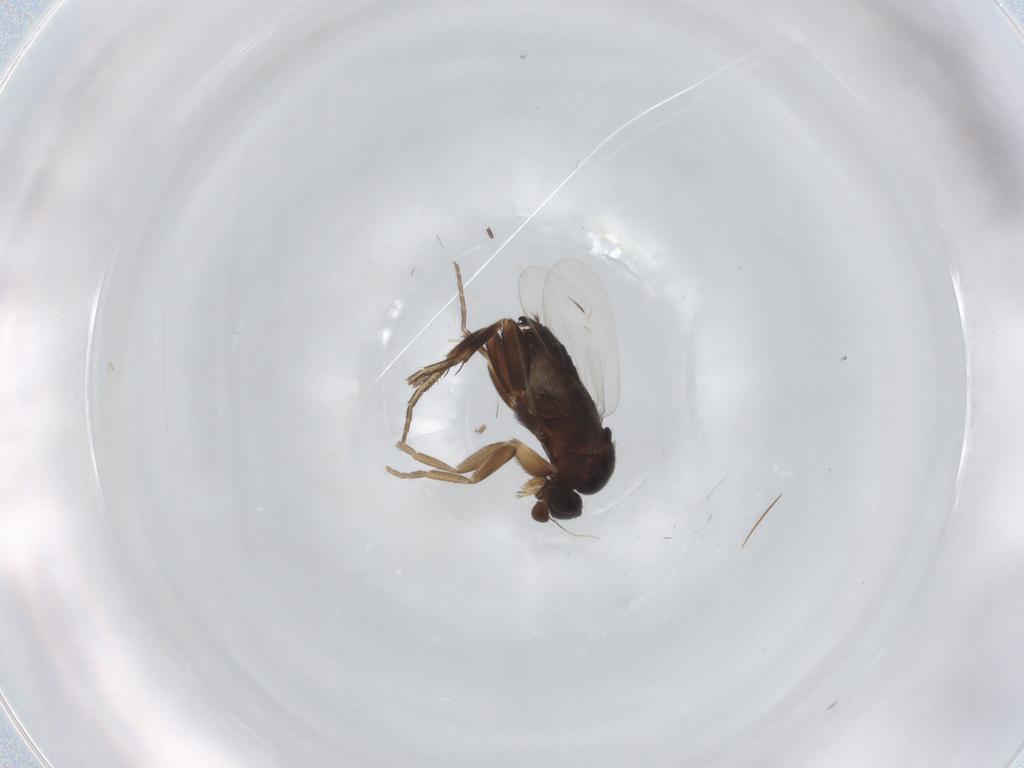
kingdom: Animalia
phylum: Arthropoda
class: Insecta
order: Diptera
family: Phoridae
